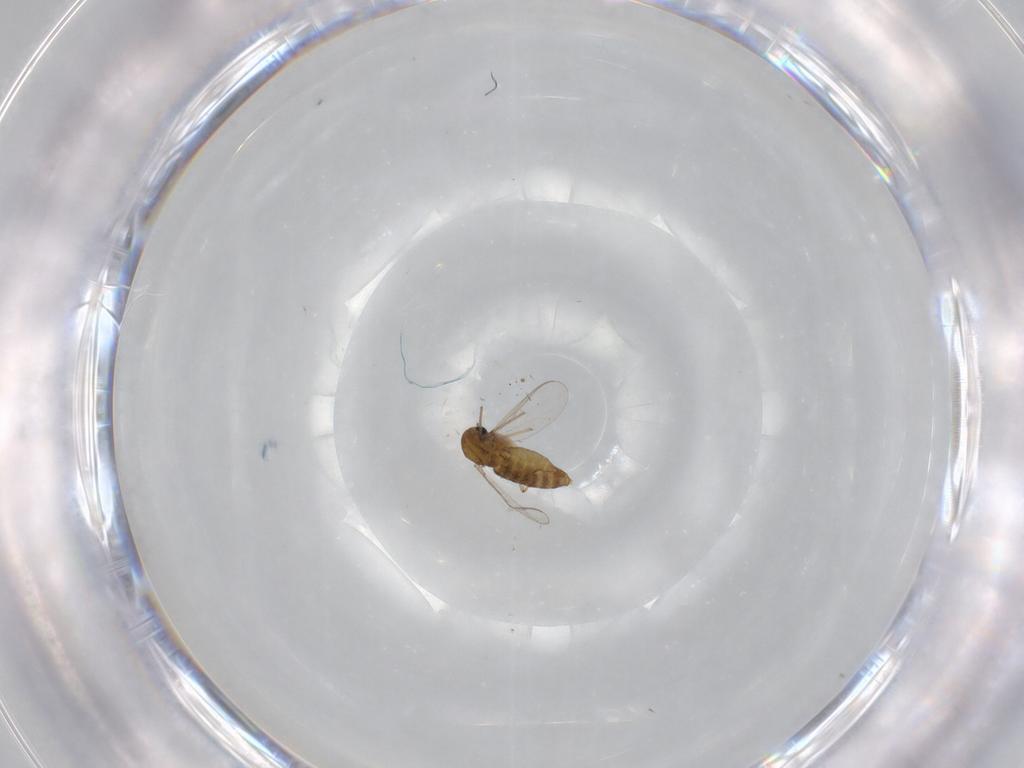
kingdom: Animalia
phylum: Arthropoda
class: Insecta
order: Diptera
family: Chironomidae
